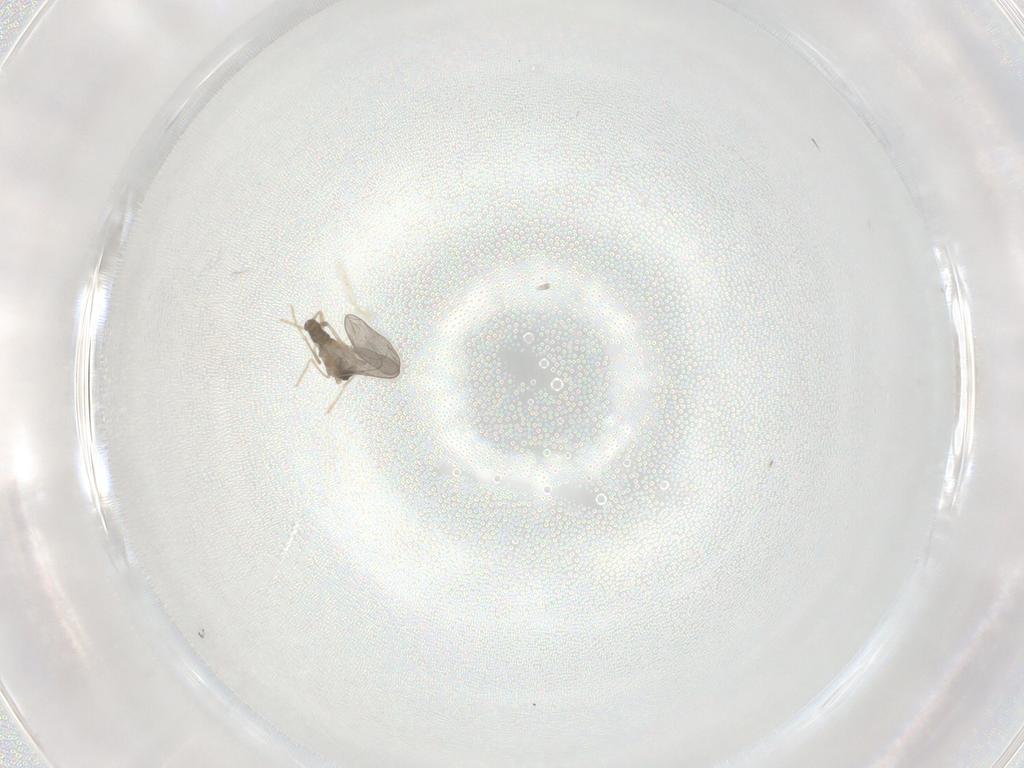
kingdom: Animalia
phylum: Arthropoda
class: Insecta
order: Diptera
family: Cecidomyiidae
